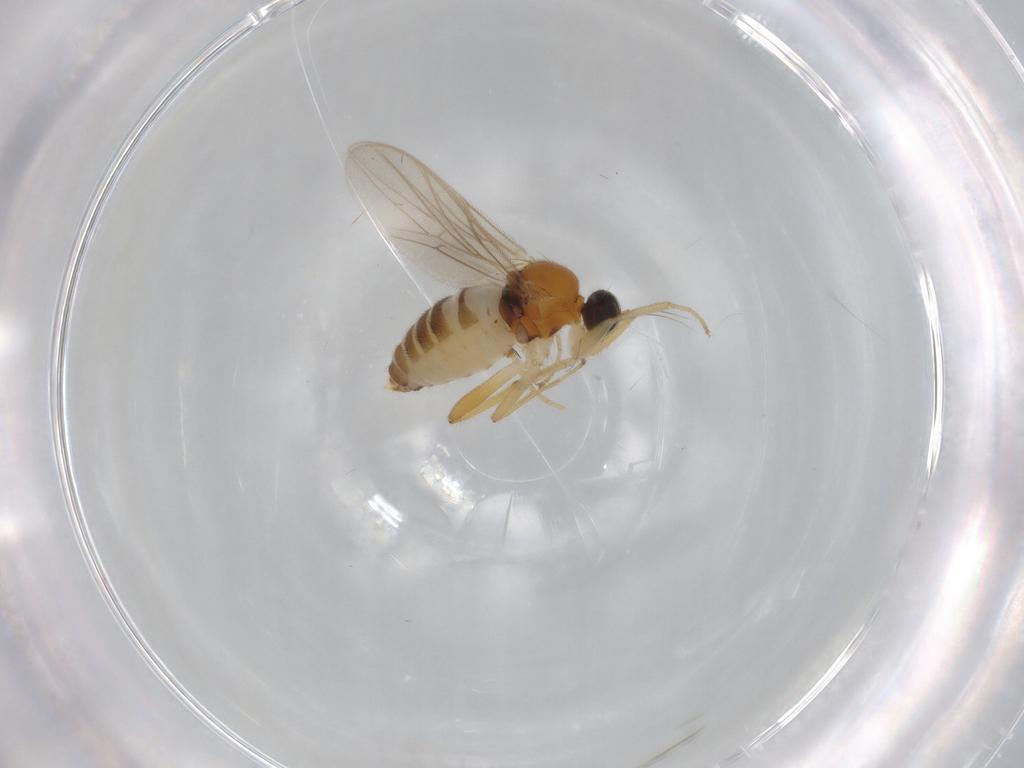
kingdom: Animalia
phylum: Arthropoda
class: Insecta
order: Diptera
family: Hybotidae
